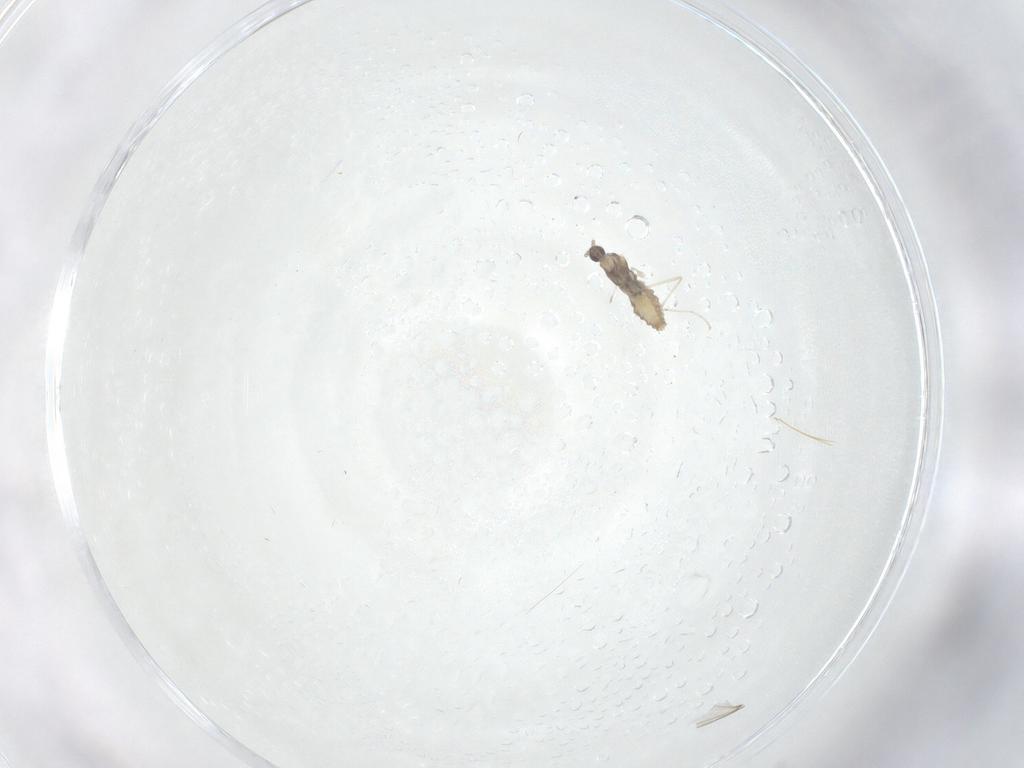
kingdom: Animalia
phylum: Arthropoda
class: Insecta
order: Diptera
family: Cecidomyiidae
